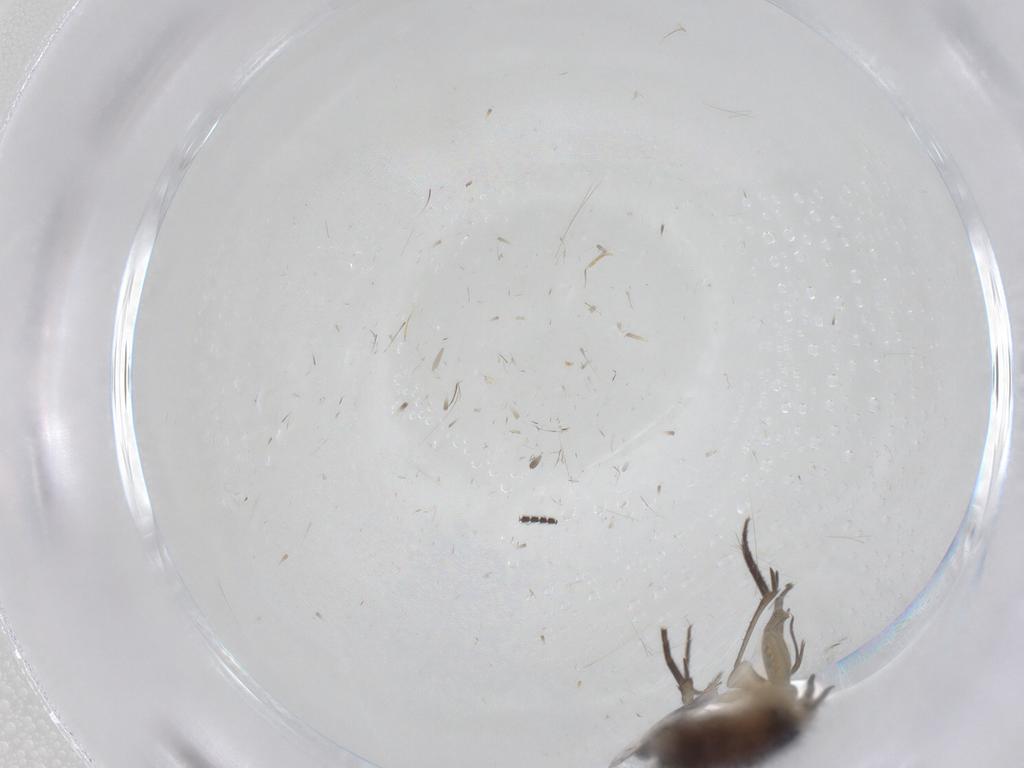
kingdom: Animalia
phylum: Arthropoda
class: Insecta
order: Diptera
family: Sciaridae
